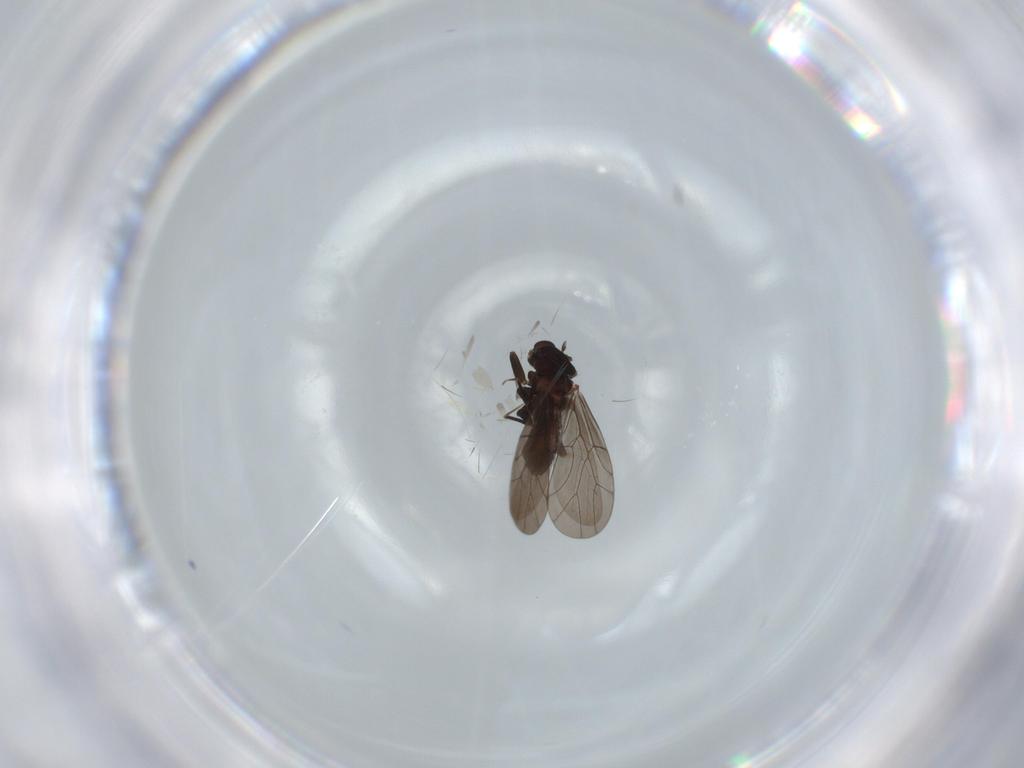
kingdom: Animalia
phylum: Arthropoda
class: Insecta
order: Psocodea
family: Lepidopsocidae
